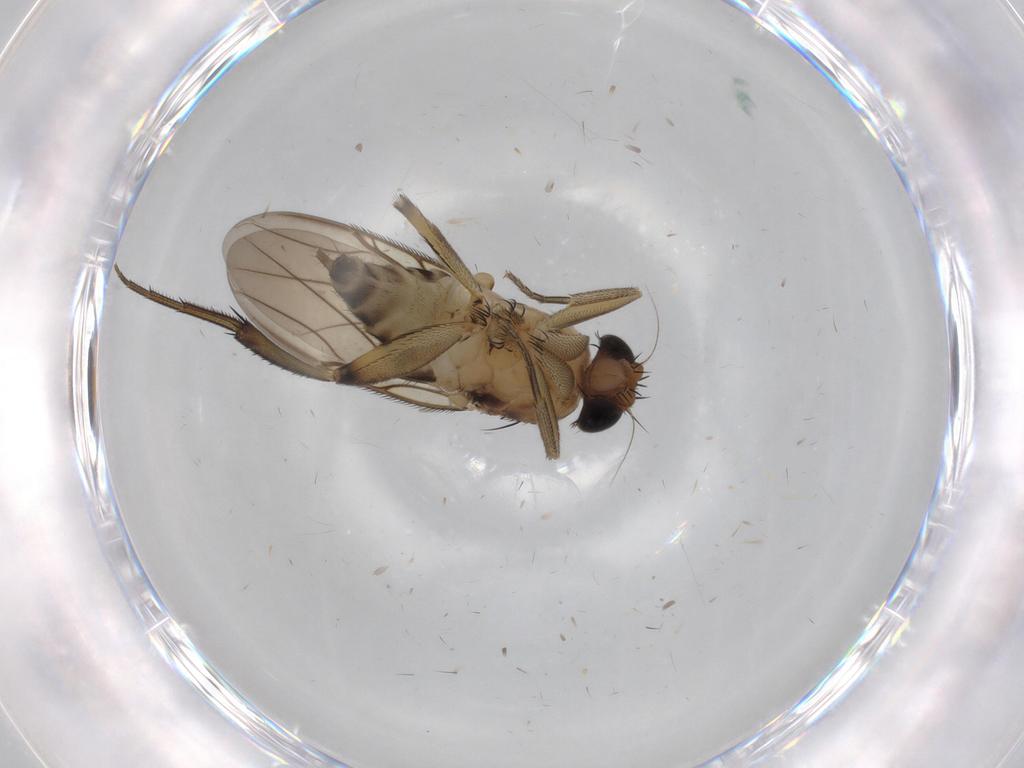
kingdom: Animalia
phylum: Arthropoda
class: Insecta
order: Diptera
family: Phoridae
